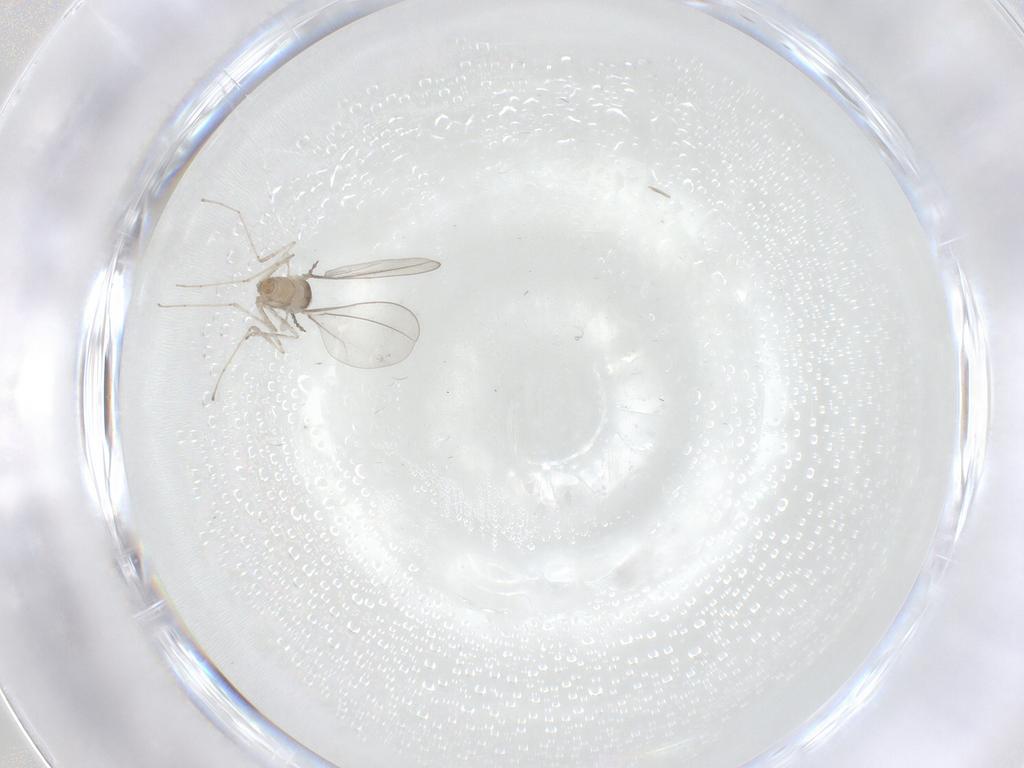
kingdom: Animalia
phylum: Arthropoda
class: Insecta
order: Diptera
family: Cecidomyiidae
